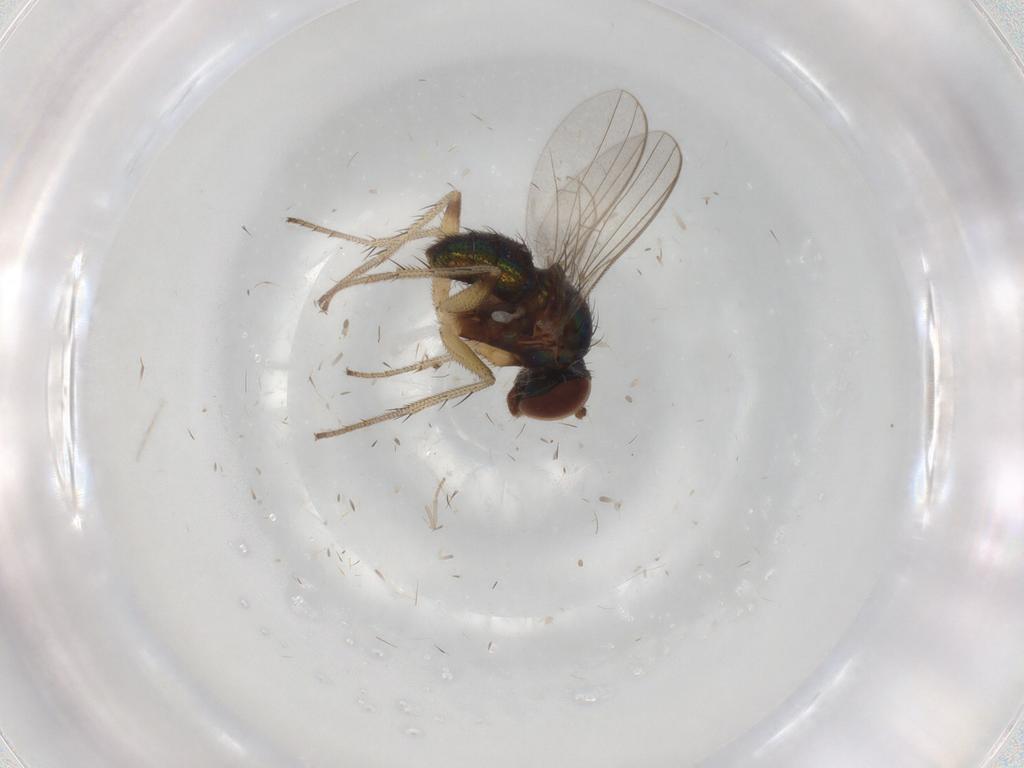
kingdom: Animalia
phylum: Arthropoda
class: Insecta
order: Diptera
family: Dolichopodidae
